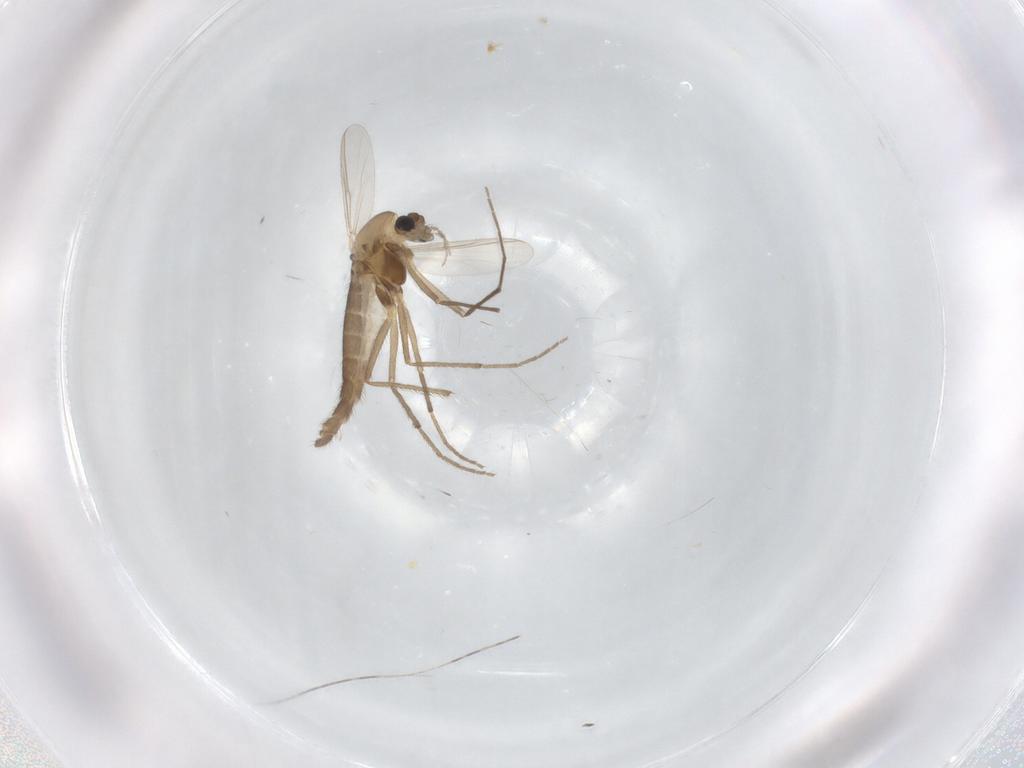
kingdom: Animalia
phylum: Arthropoda
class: Insecta
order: Diptera
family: Chironomidae
